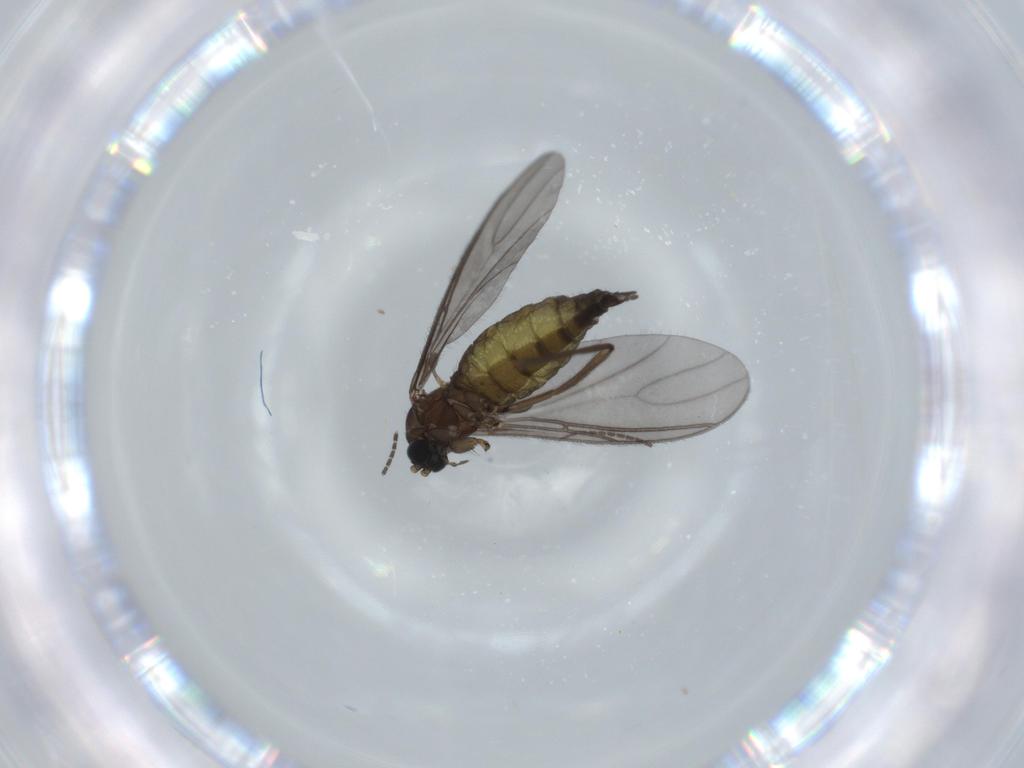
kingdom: Animalia
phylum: Arthropoda
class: Insecta
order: Diptera
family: Sciaridae
